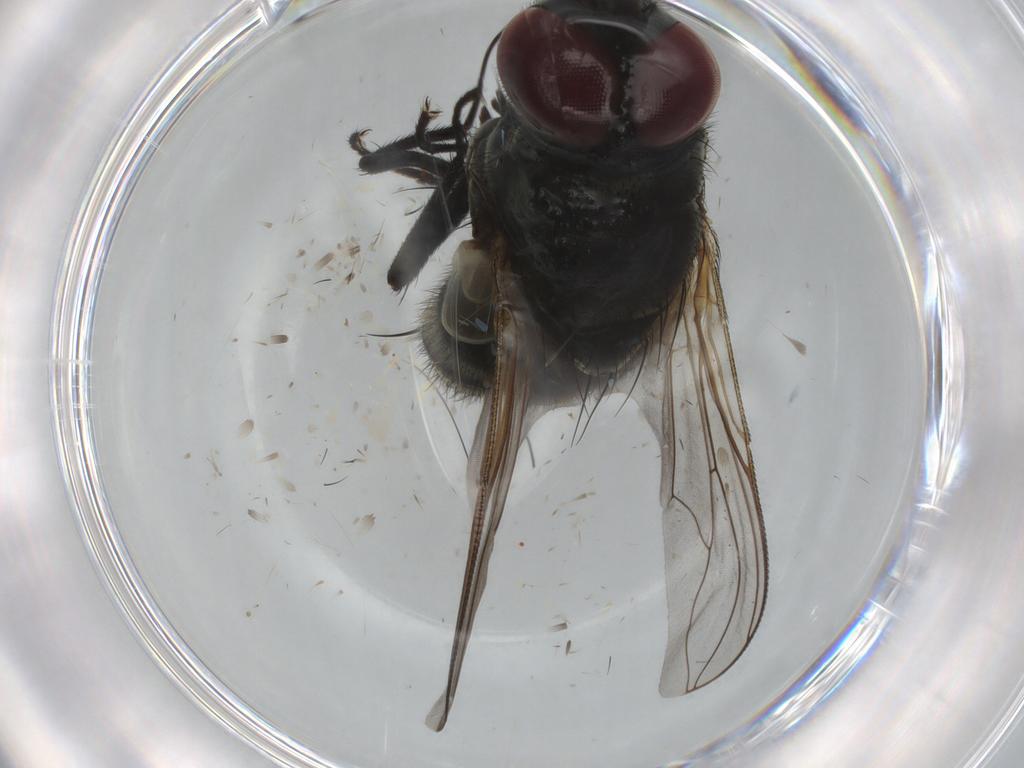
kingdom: Animalia
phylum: Arthropoda
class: Insecta
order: Diptera
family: Muscidae
